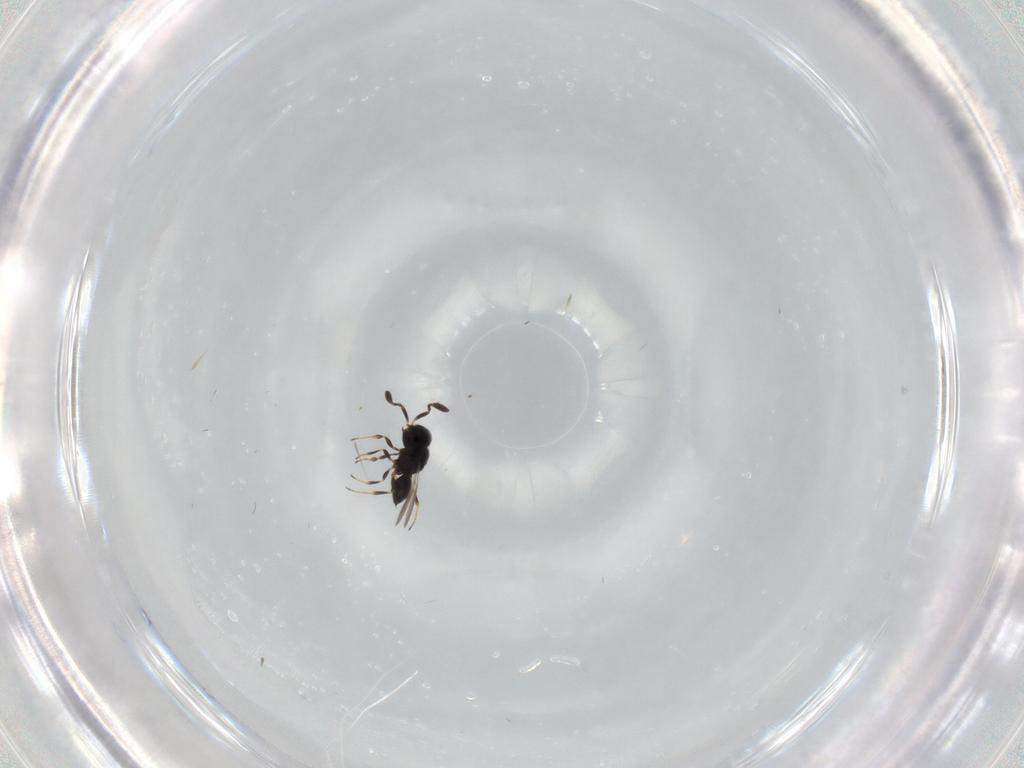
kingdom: Animalia
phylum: Arthropoda
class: Insecta
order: Hymenoptera
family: Scelionidae
